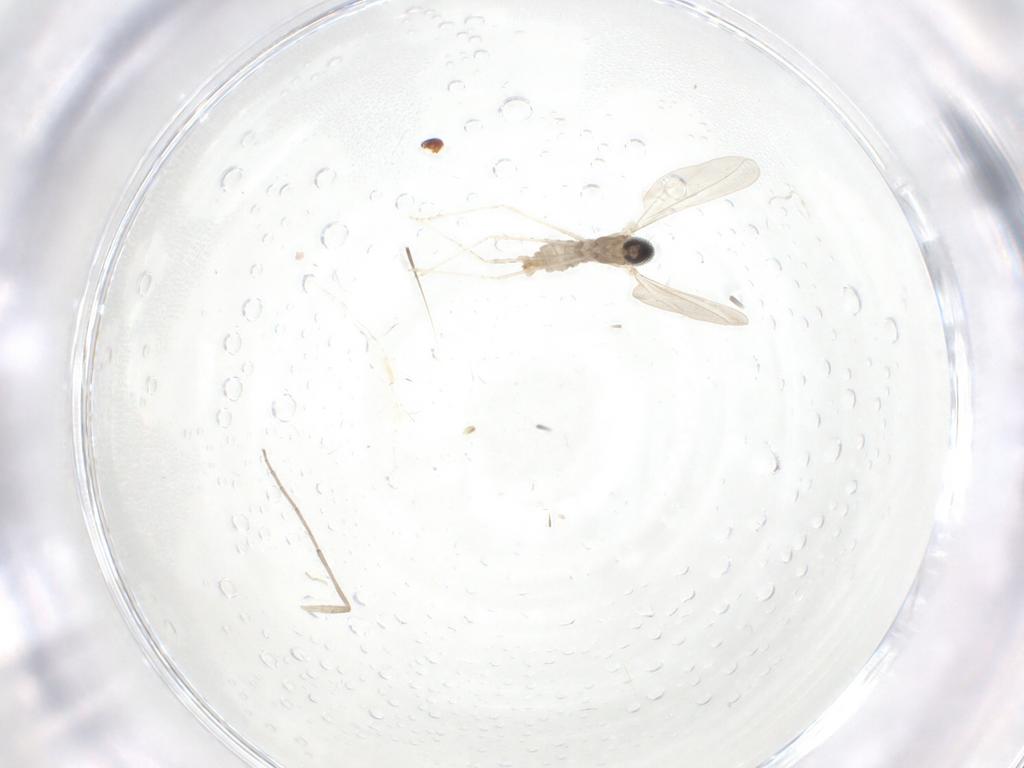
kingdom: Animalia
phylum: Arthropoda
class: Insecta
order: Diptera
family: Cecidomyiidae
